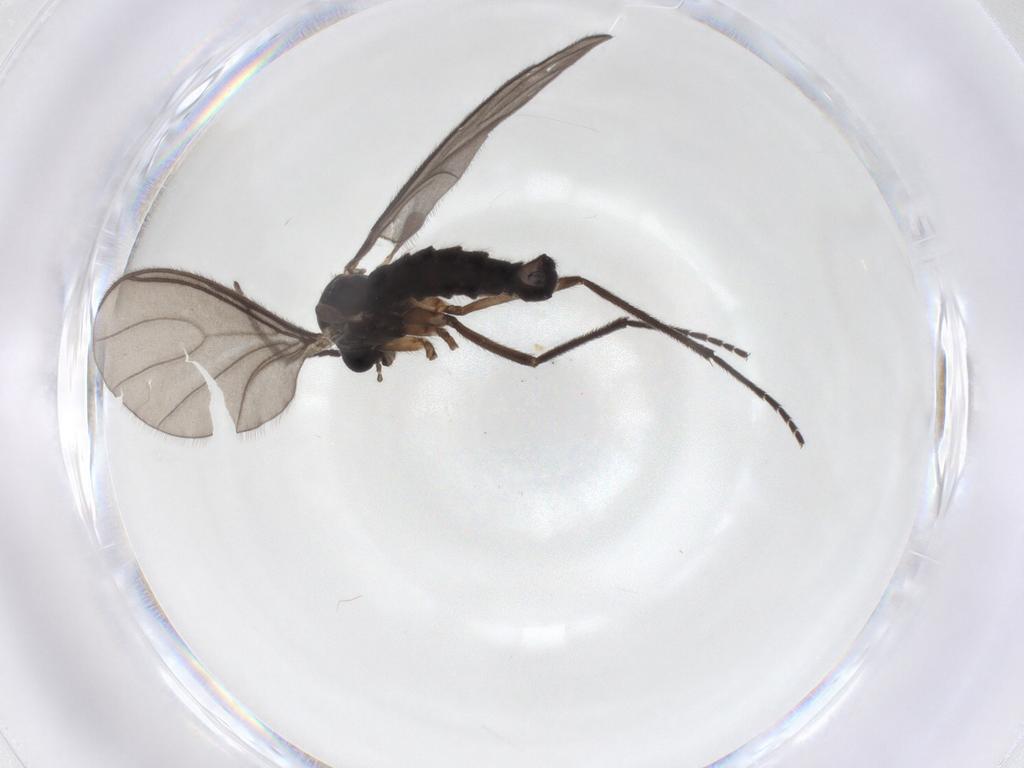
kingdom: Animalia
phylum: Arthropoda
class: Insecta
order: Diptera
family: Sciaridae
